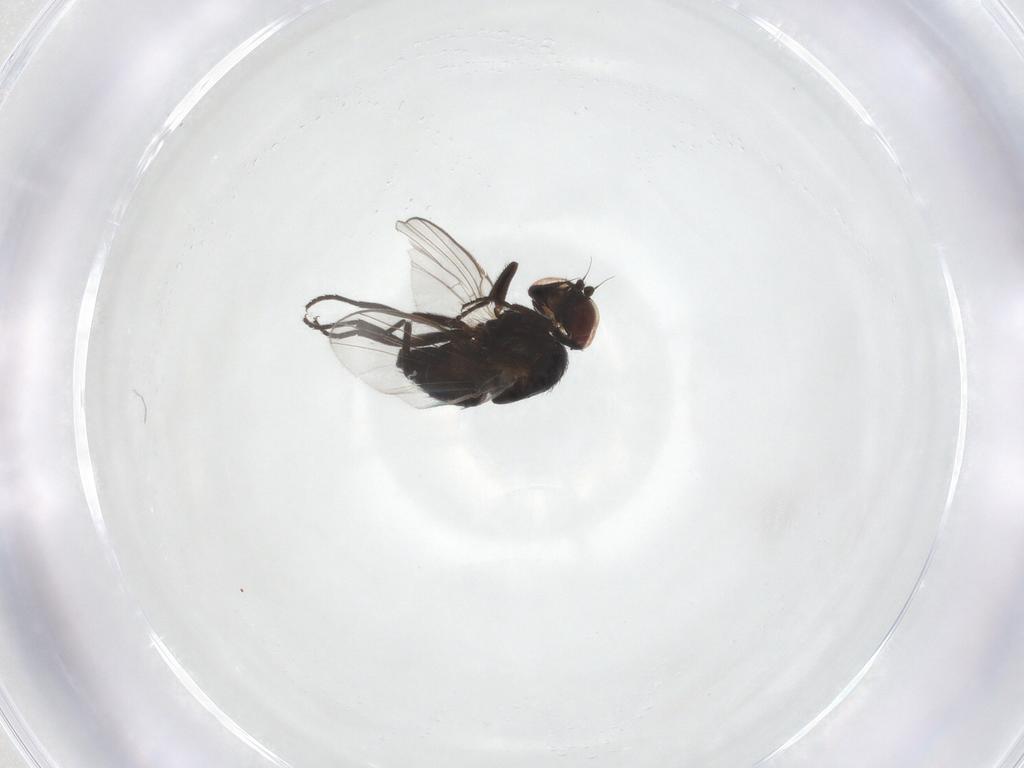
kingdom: Animalia
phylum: Arthropoda
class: Insecta
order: Diptera
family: Agromyzidae
